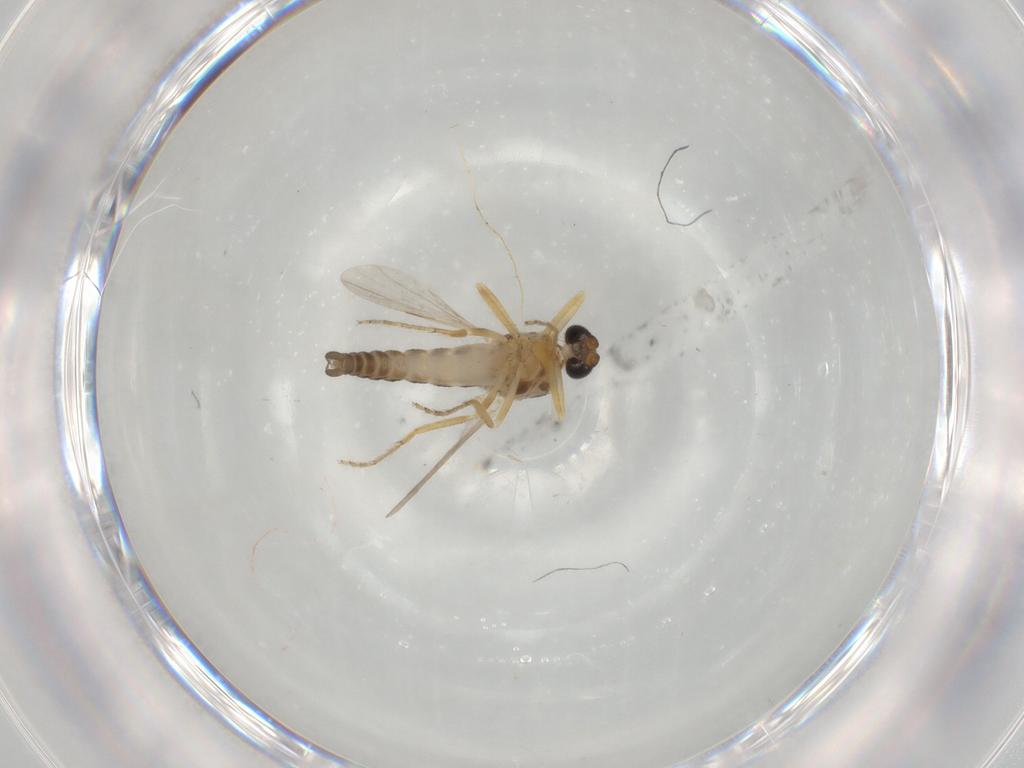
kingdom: Animalia
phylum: Arthropoda
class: Insecta
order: Diptera
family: Ceratopogonidae
